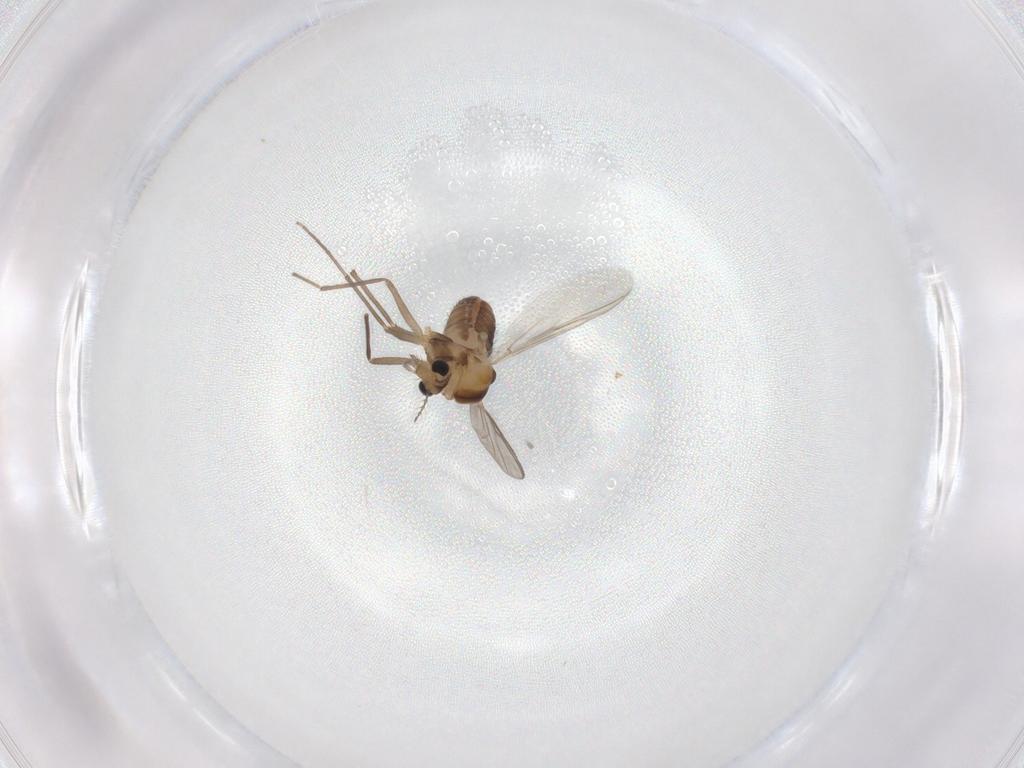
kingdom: Animalia
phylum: Arthropoda
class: Insecta
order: Diptera
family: Chironomidae
